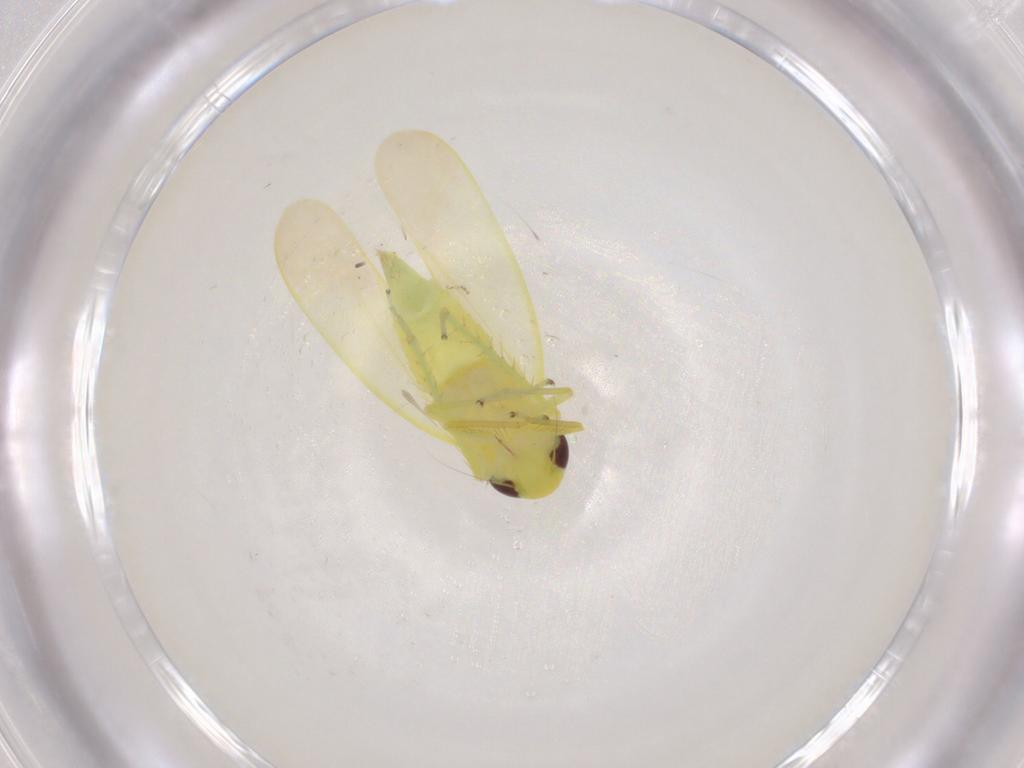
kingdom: Animalia
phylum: Arthropoda
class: Insecta
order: Hemiptera
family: Cicadellidae
